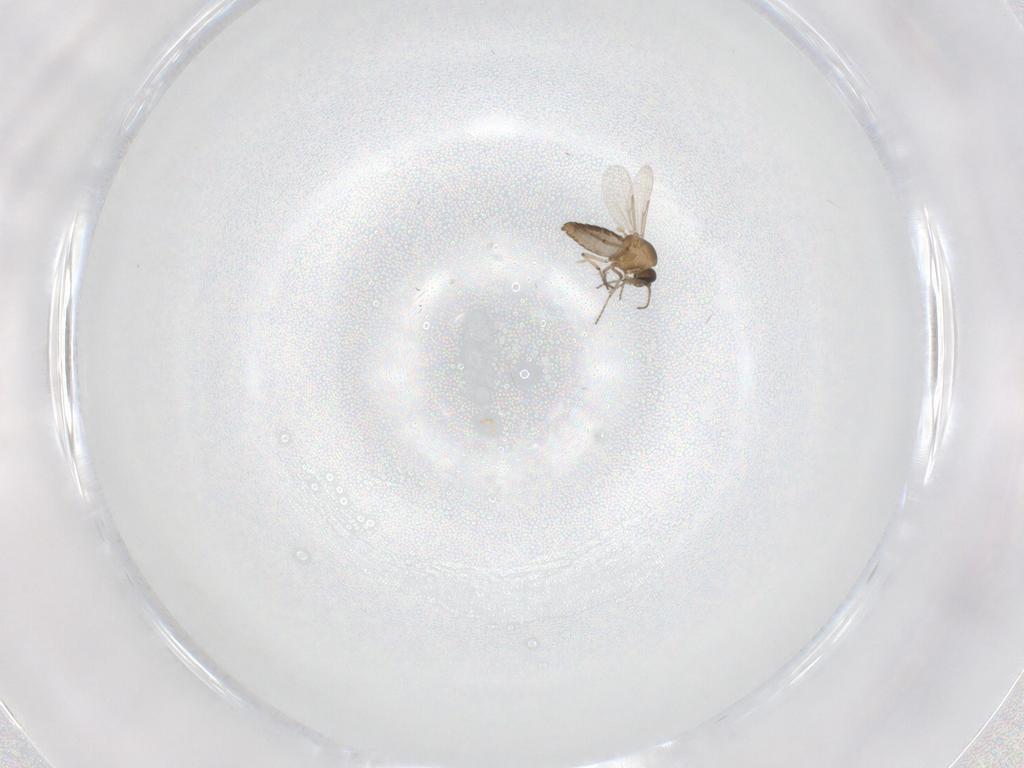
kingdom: Animalia
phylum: Arthropoda
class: Insecta
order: Diptera
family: Ceratopogonidae
